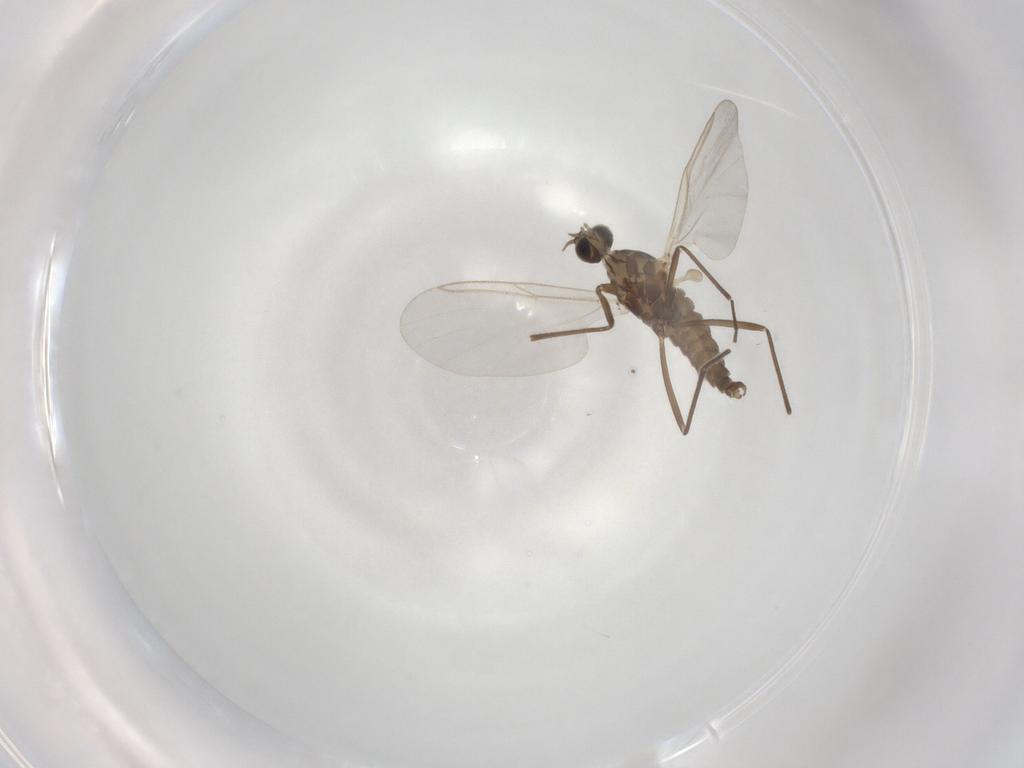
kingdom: Animalia
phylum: Arthropoda
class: Insecta
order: Diptera
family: Cecidomyiidae
